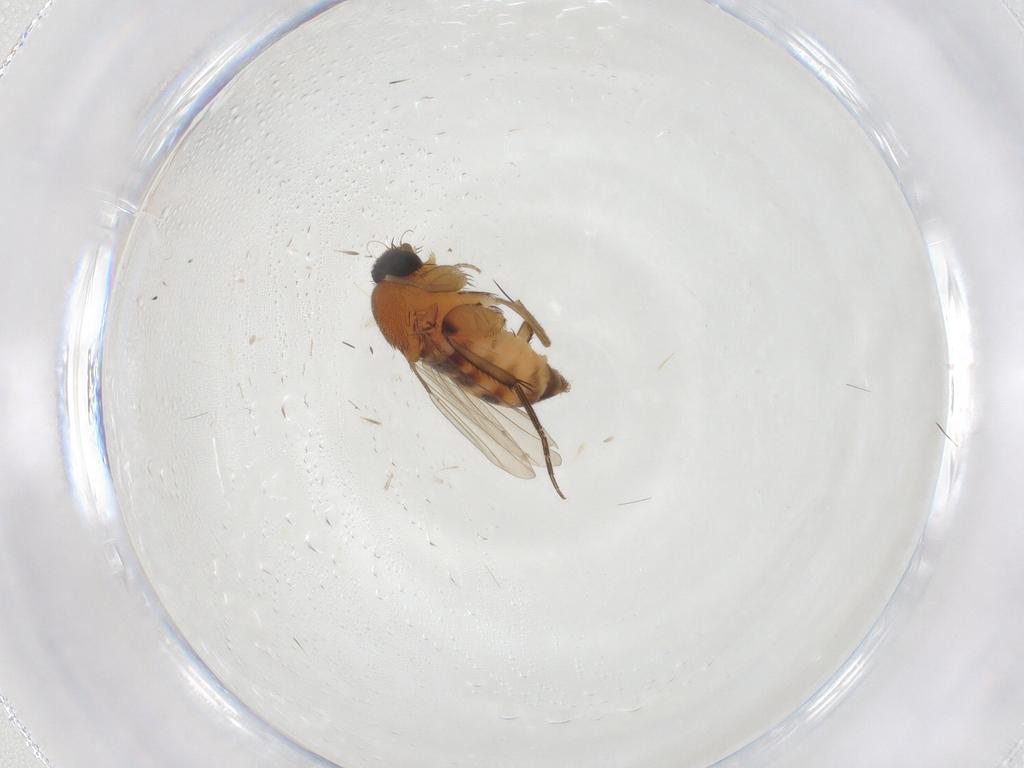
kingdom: Animalia
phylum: Arthropoda
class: Insecta
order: Diptera
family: Phoridae
